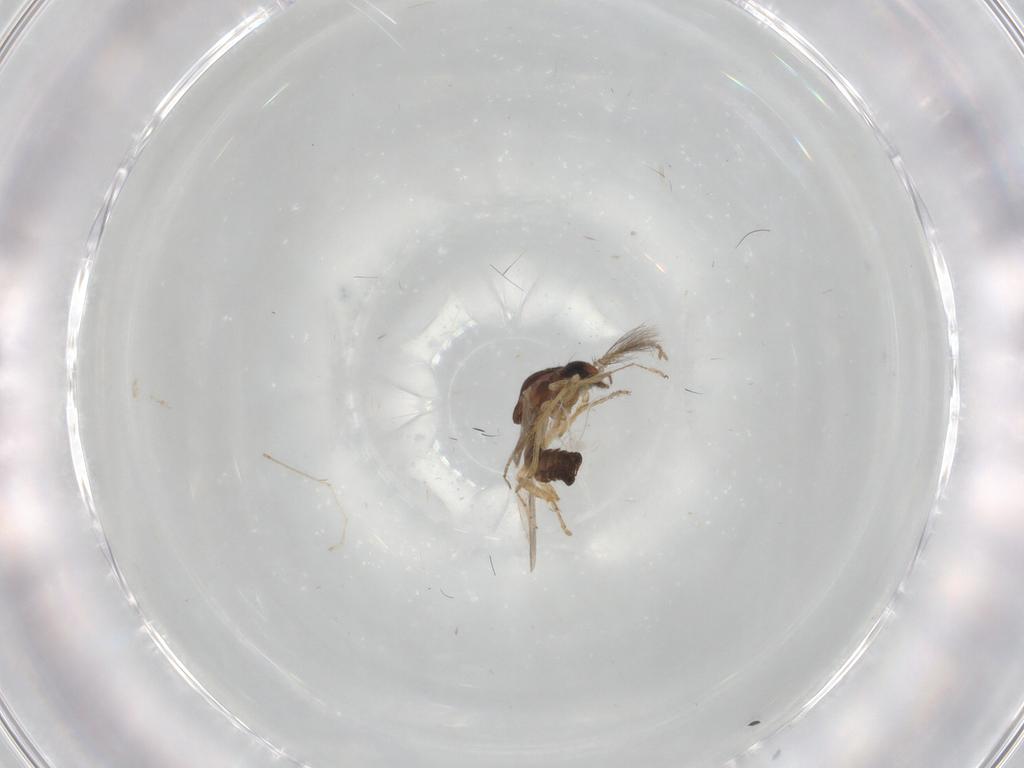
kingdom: Animalia
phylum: Arthropoda
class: Insecta
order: Diptera
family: Ceratopogonidae
